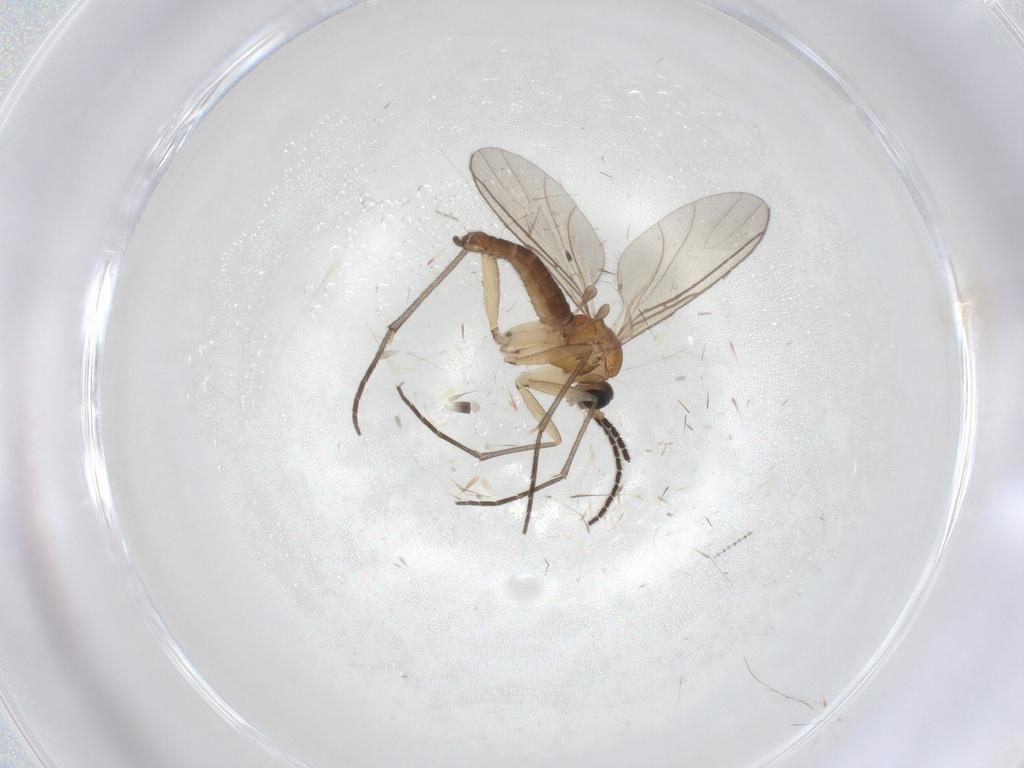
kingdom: Animalia
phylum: Arthropoda
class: Insecta
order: Diptera
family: Sciaridae
